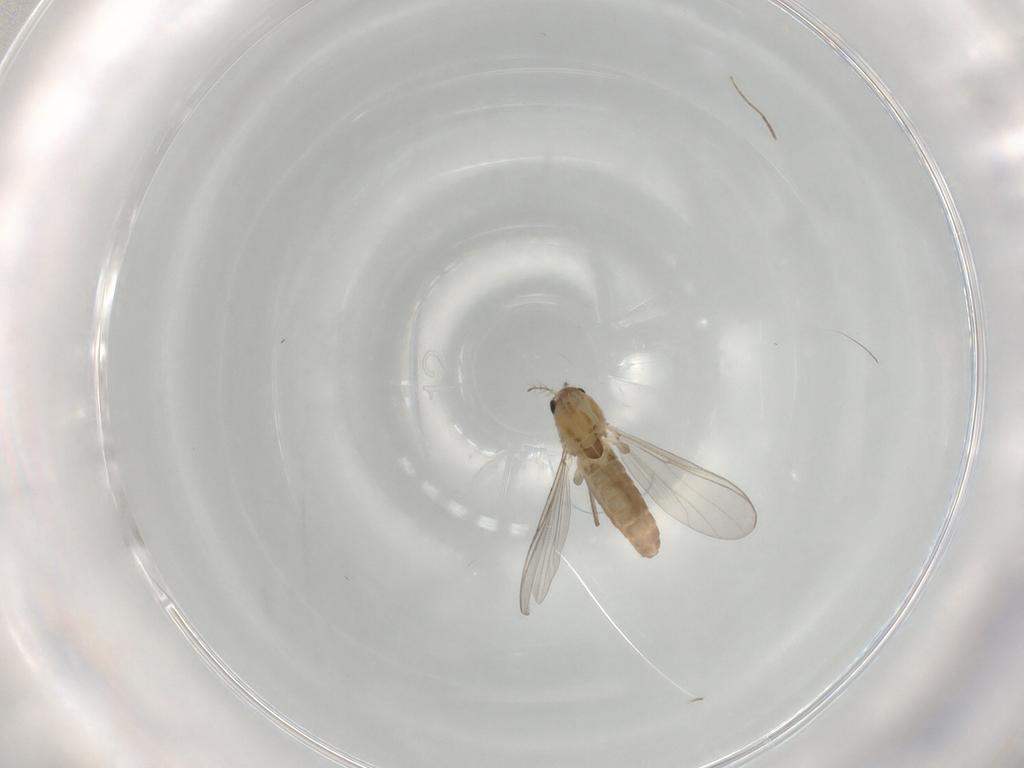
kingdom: Animalia
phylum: Arthropoda
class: Insecta
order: Diptera
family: Chironomidae
